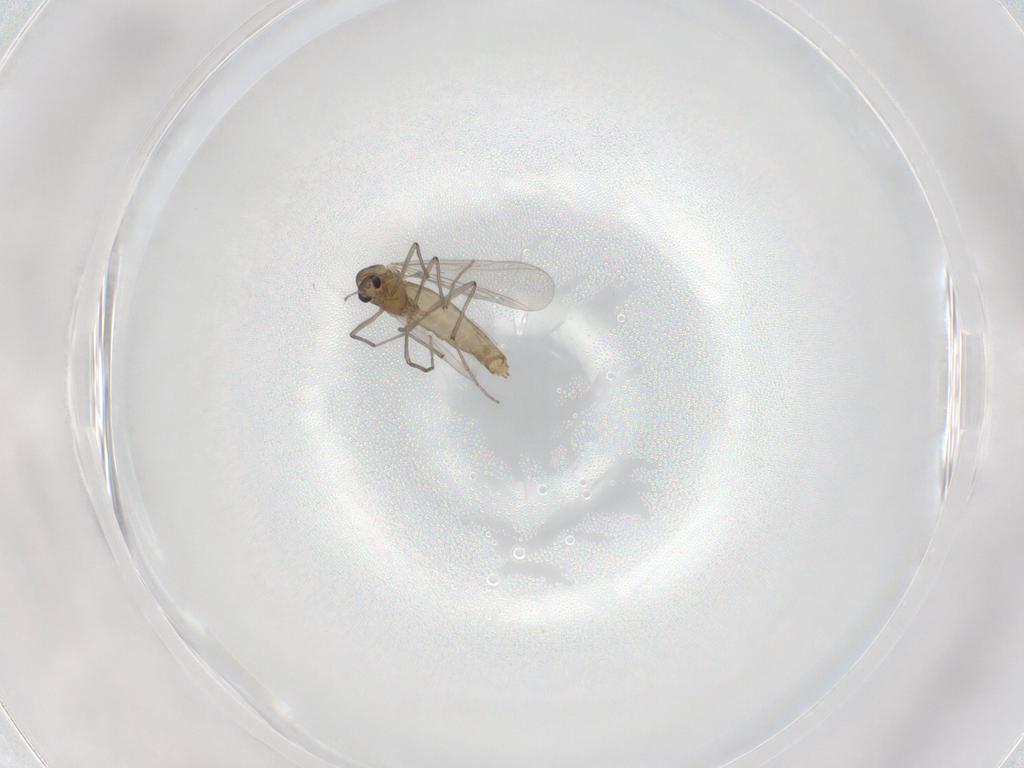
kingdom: Animalia
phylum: Arthropoda
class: Insecta
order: Diptera
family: Chironomidae
